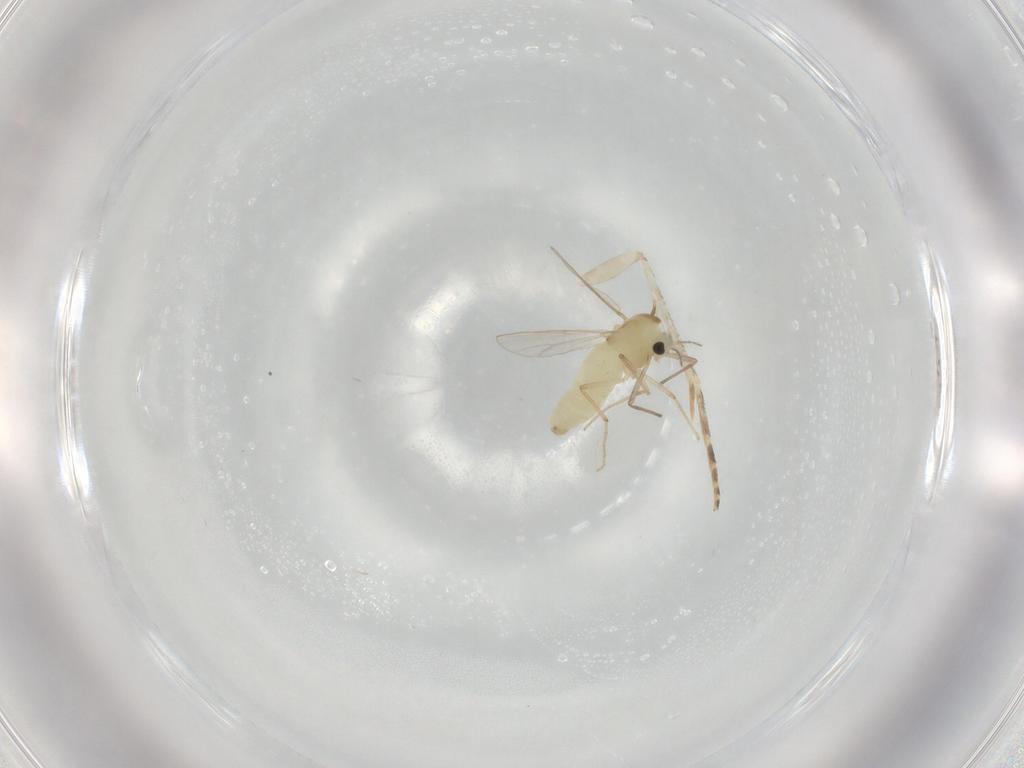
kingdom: Animalia
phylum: Arthropoda
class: Insecta
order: Diptera
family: Chironomidae
